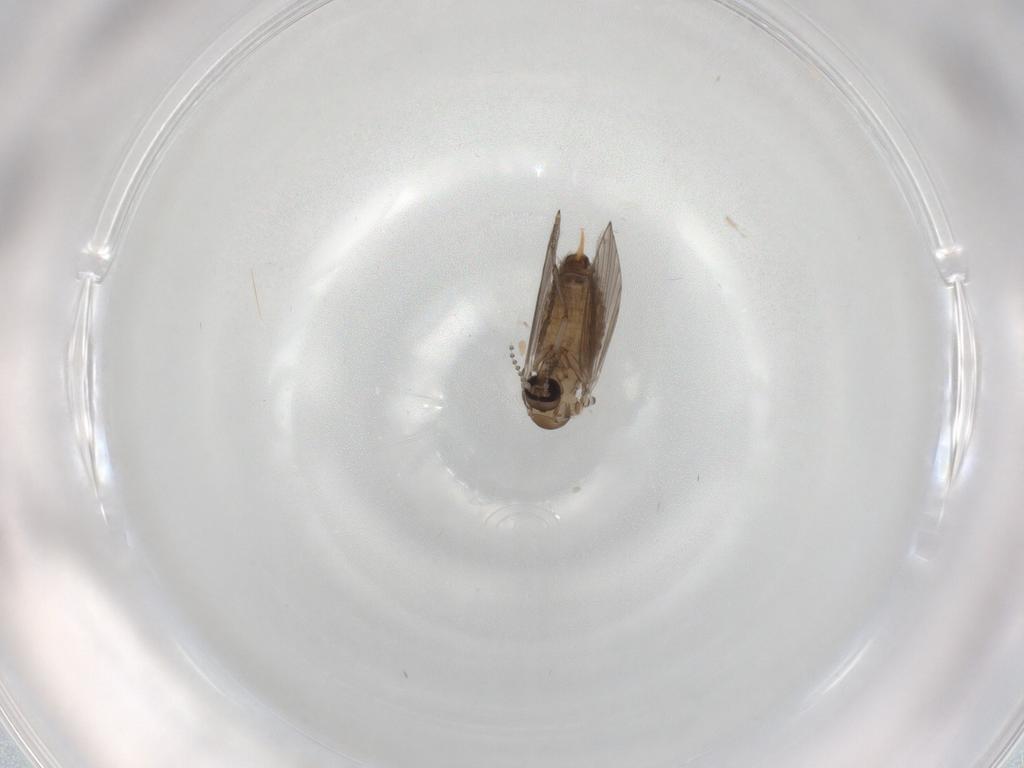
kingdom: Animalia
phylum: Arthropoda
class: Insecta
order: Diptera
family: Psychodidae
